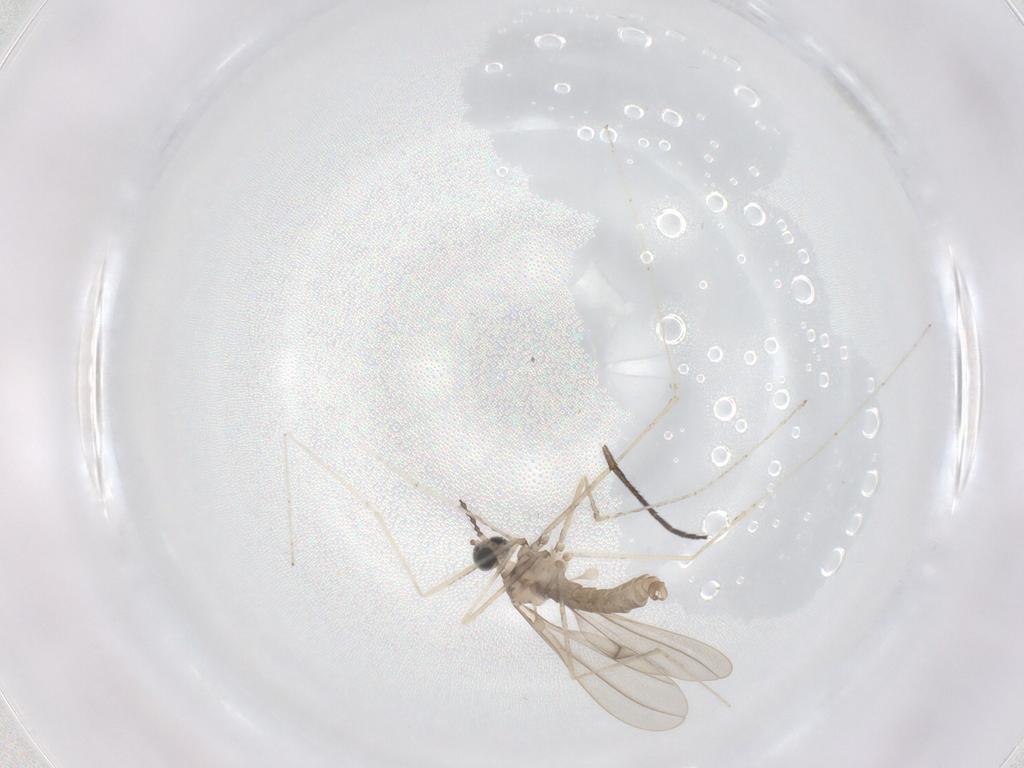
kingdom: Animalia
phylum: Arthropoda
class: Insecta
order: Diptera
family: Cecidomyiidae
